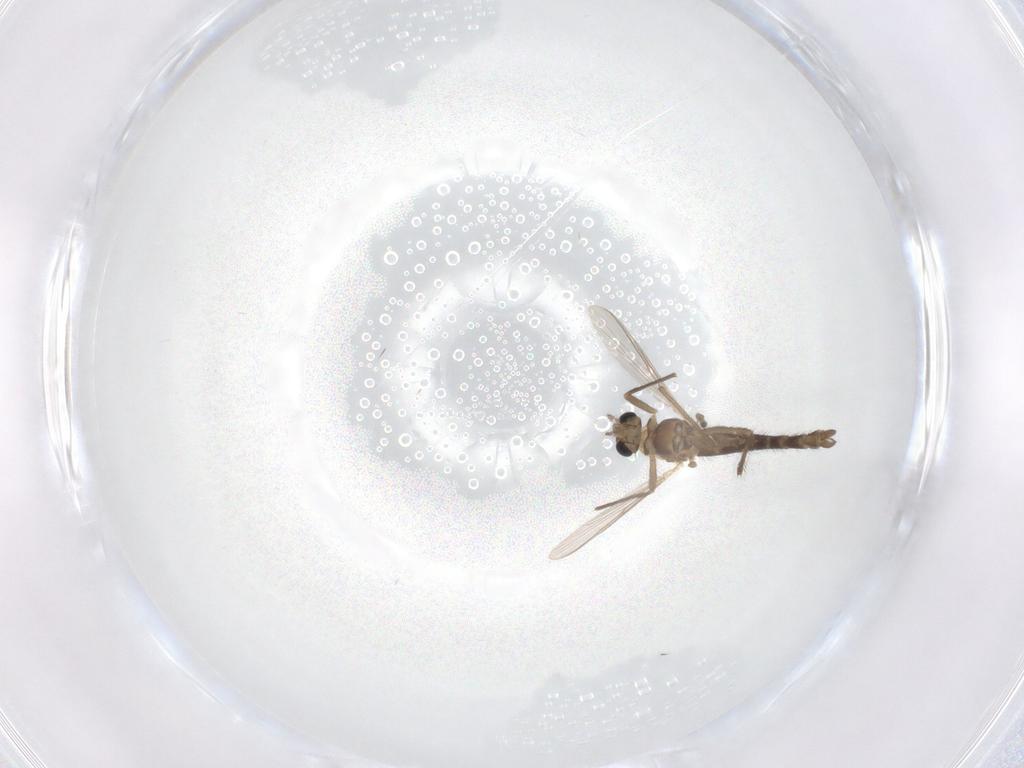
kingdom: Animalia
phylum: Arthropoda
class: Insecta
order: Diptera
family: Chironomidae
